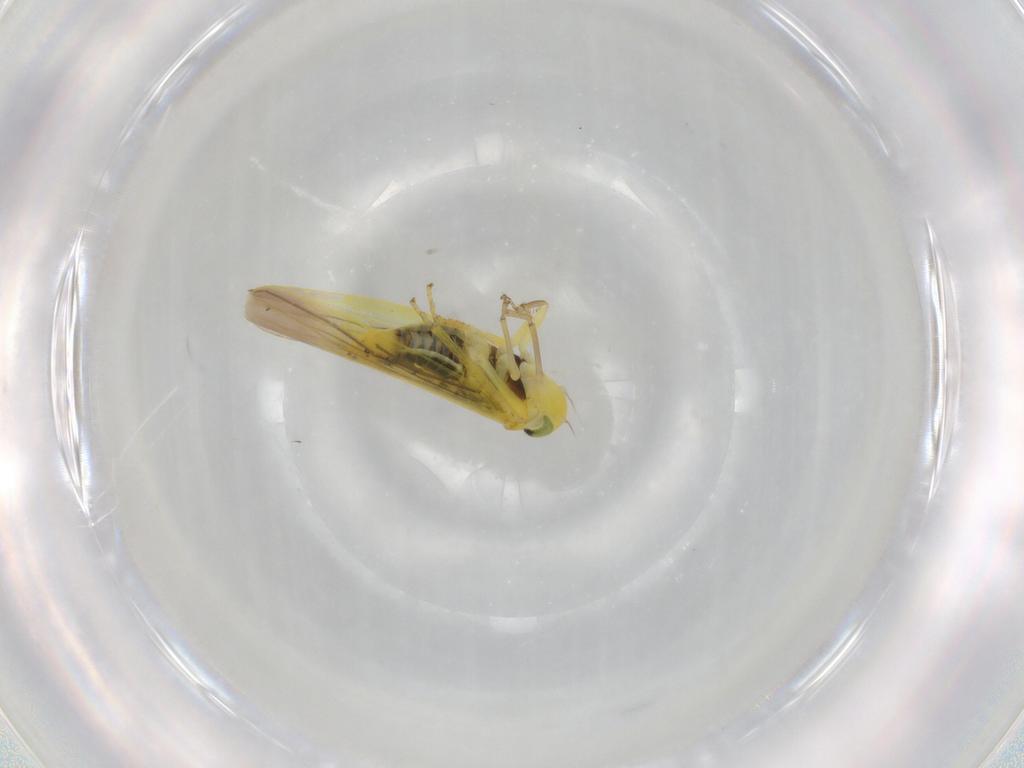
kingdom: Animalia
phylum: Arthropoda
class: Insecta
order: Hemiptera
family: Cicadellidae
